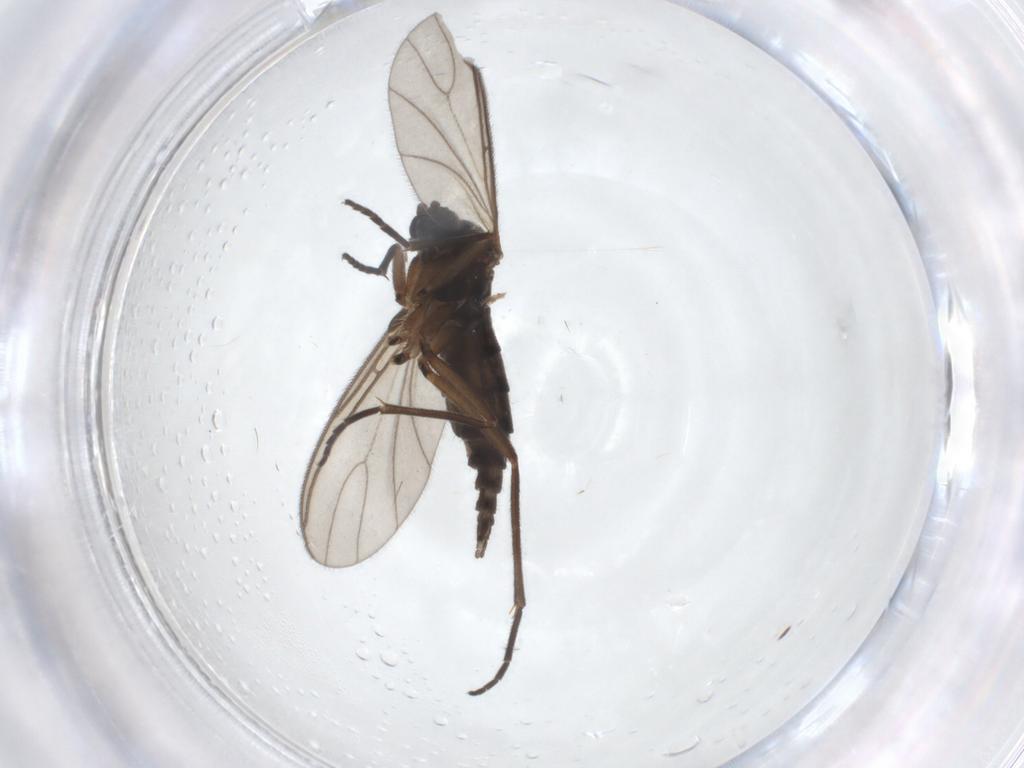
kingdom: Animalia
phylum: Arthropoda
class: Insecta
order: Diptera
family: Sciaridae
